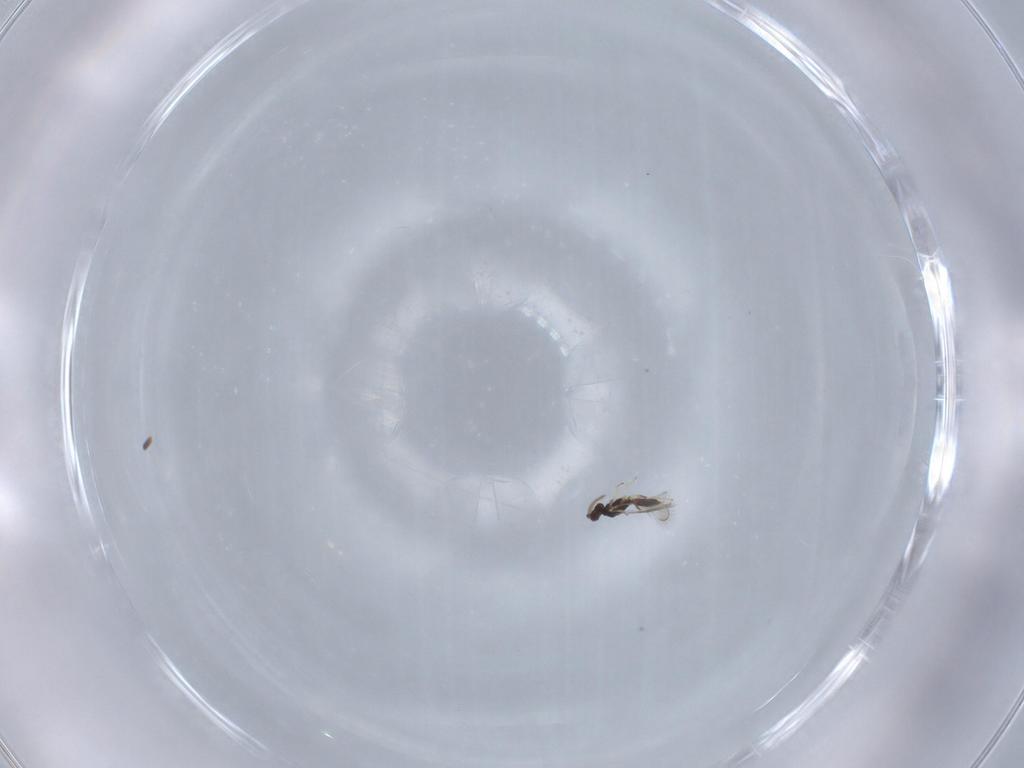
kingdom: Animalia
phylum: Arthropoda
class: Insecta
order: Hymenoptera
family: Eulophidae
